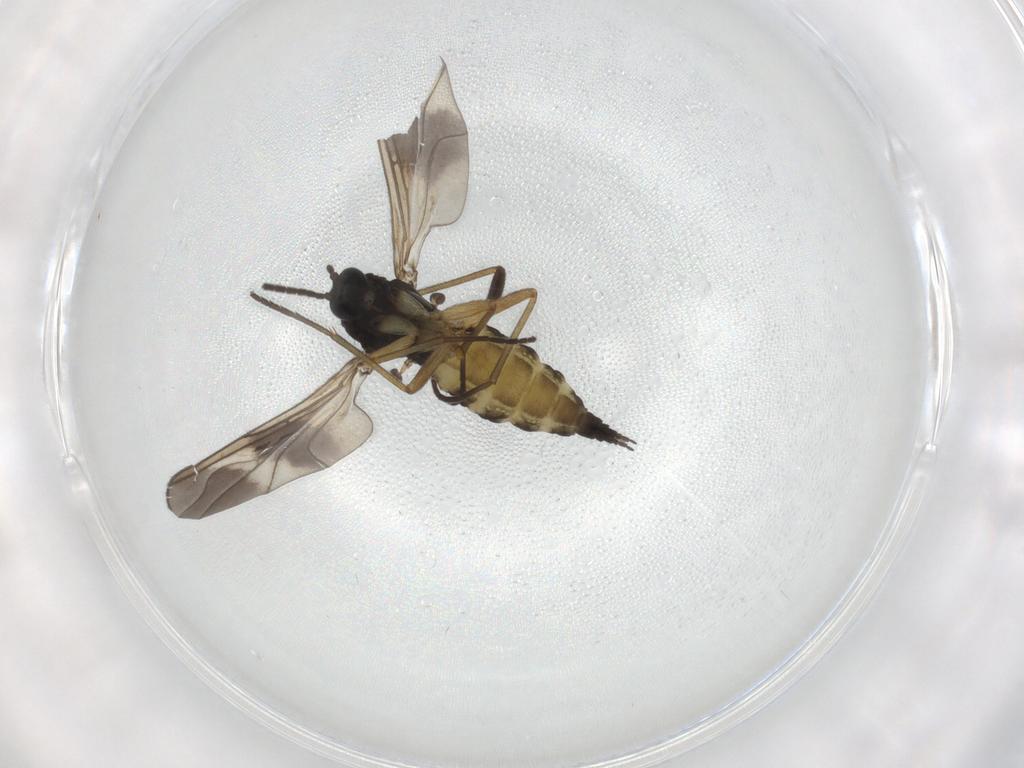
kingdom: Animalia
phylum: Arthropoda
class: Insecta
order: Diptera
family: Sciaridae
